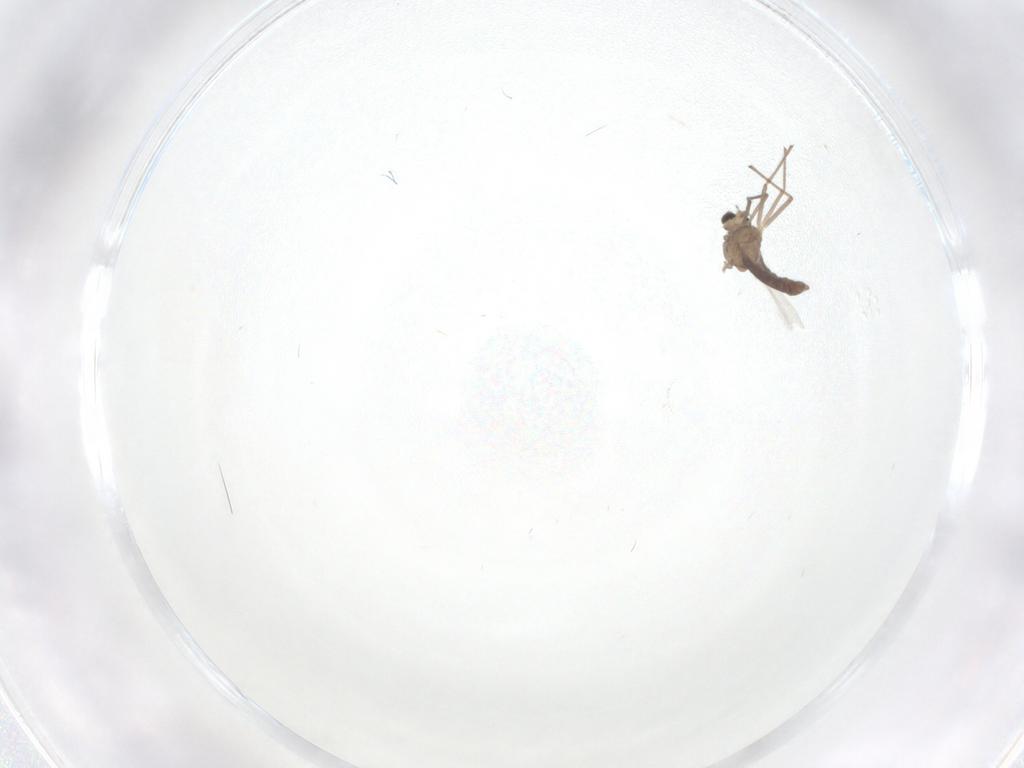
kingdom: Animalia
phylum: Arthropoda
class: Insecta
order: Diptera
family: Chironomidae
